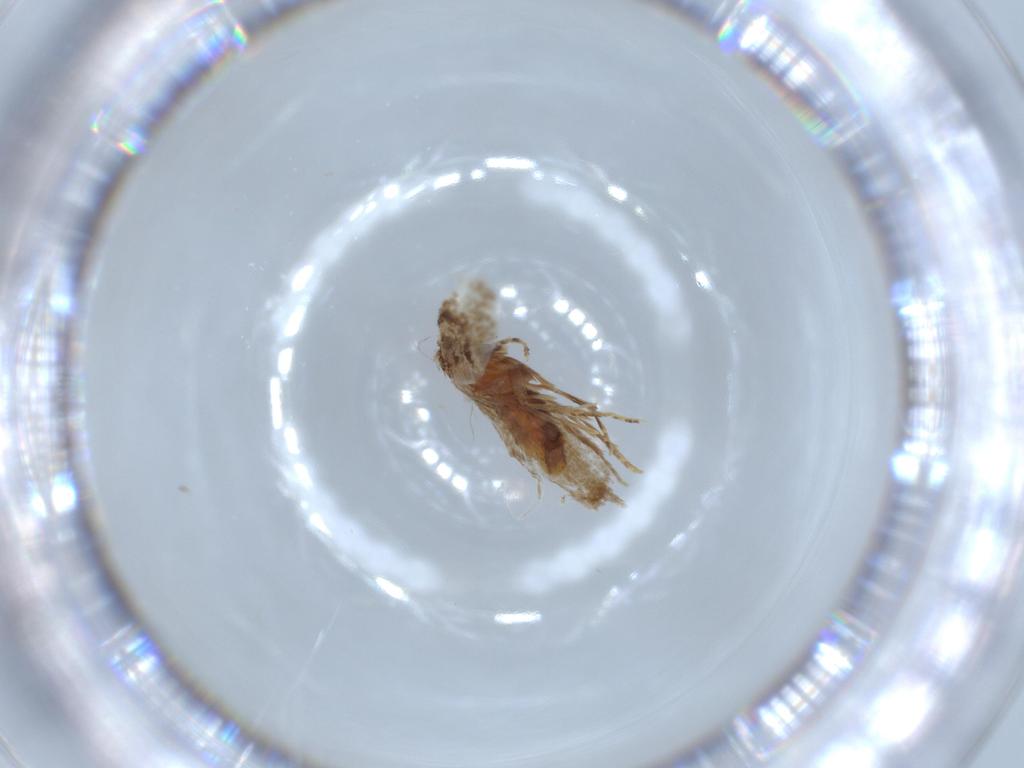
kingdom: Animalia
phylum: Arthropoda
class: Insecta
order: Lepidoptera
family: Incurvariidae
